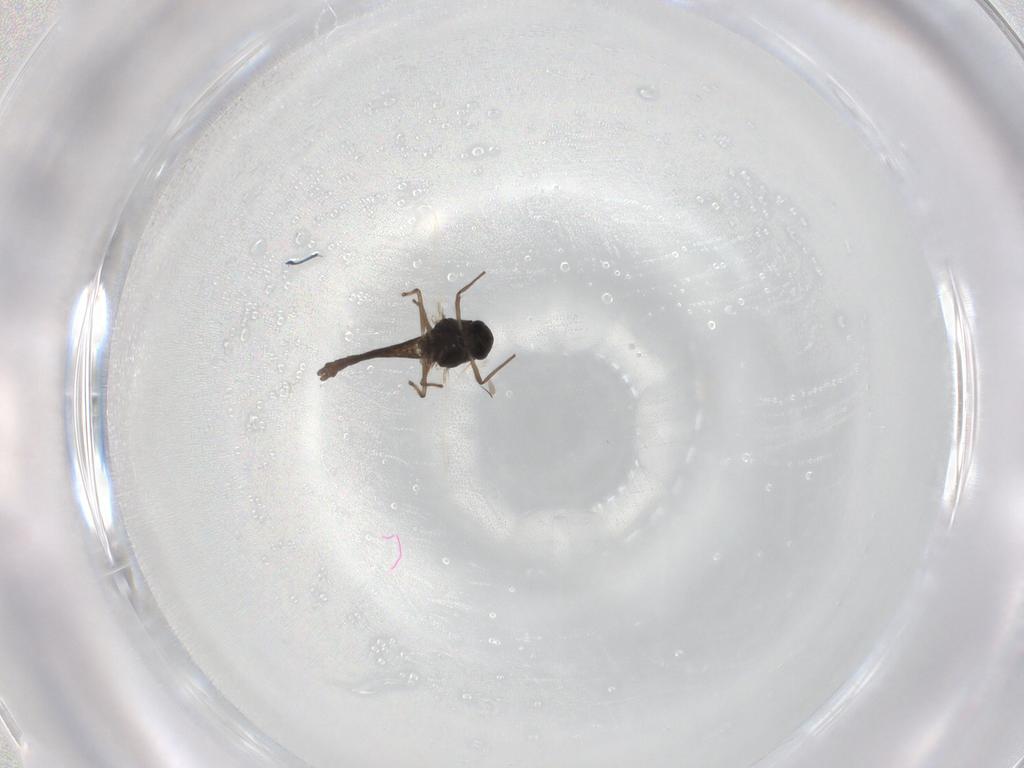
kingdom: Animalia
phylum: Arthropoda
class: Insecta
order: Diptera
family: Chironomidae
